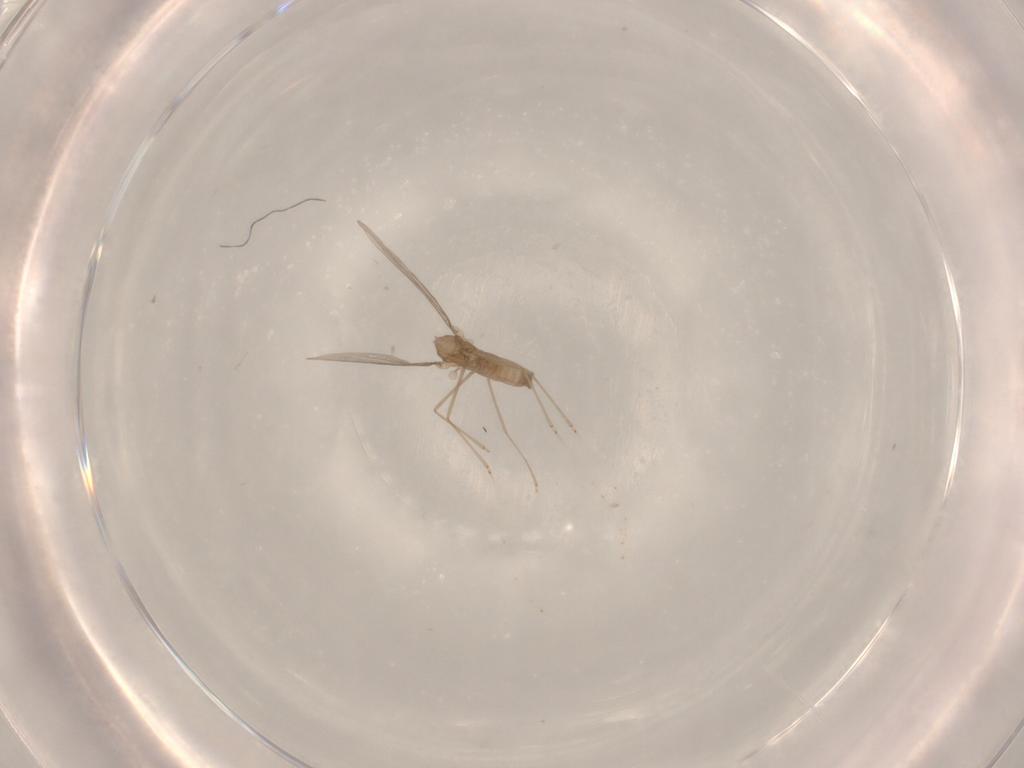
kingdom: Animalia
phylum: Arthropoda
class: Insecta
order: Diptera
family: Cecidomyiidae
